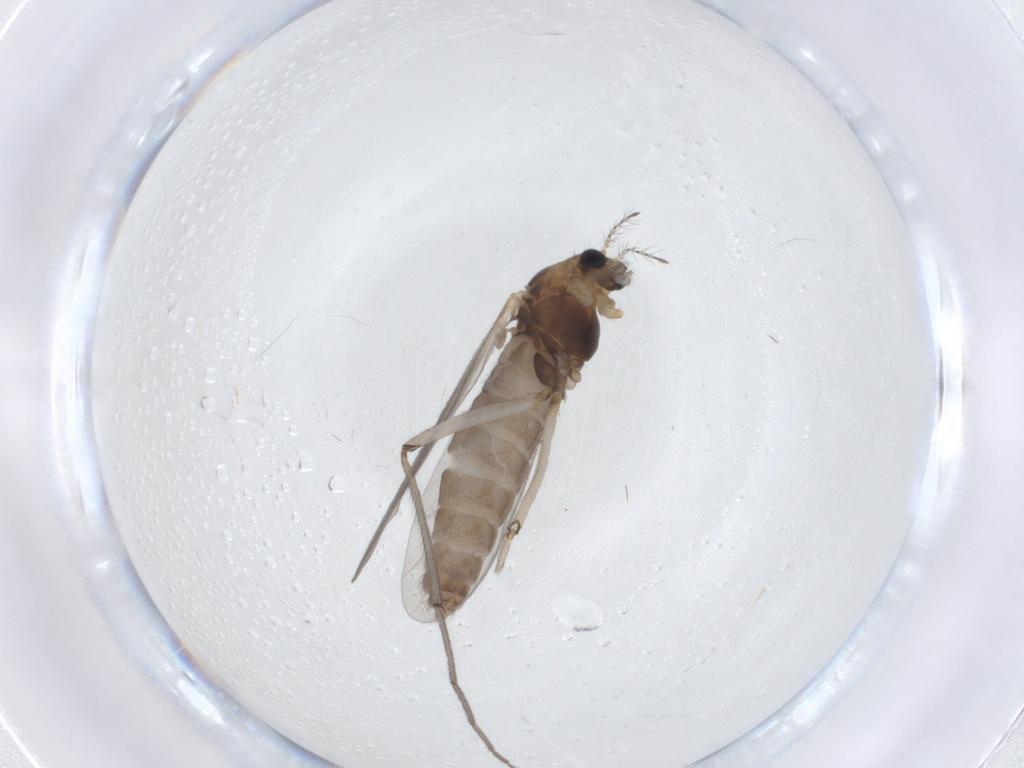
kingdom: Animalia
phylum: Arthropoda
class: Insecta
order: Diptera
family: Chironomidae
